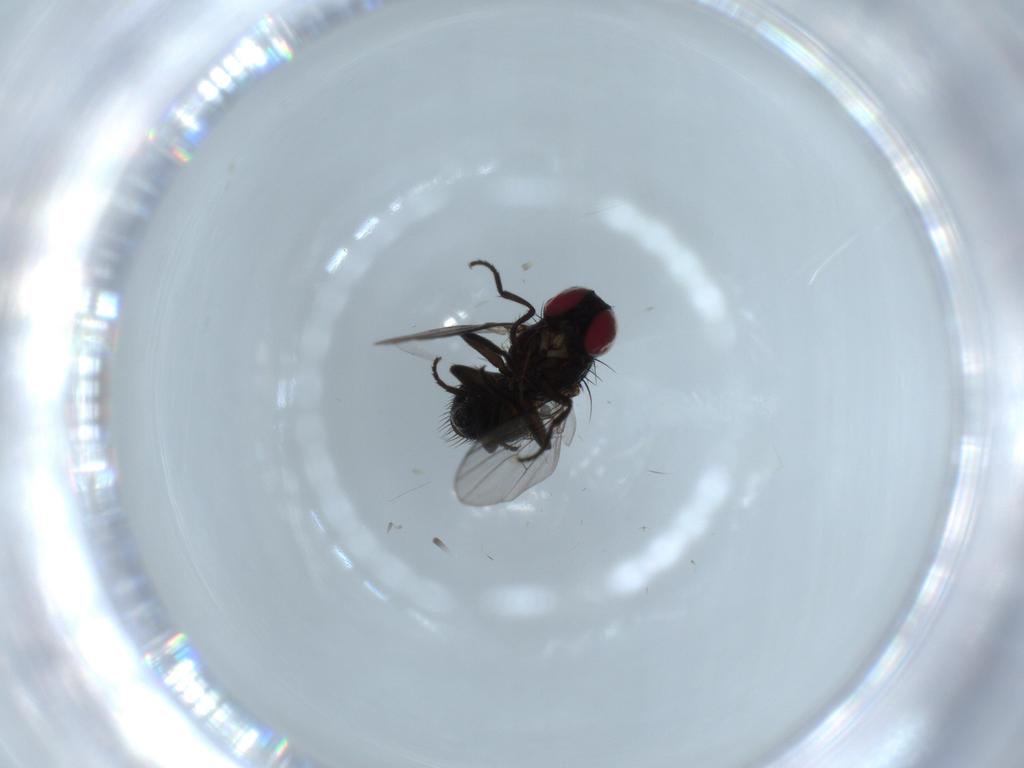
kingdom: Animalia
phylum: Arthropoda
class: Insecta
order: Diptera
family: Agromyzidae
